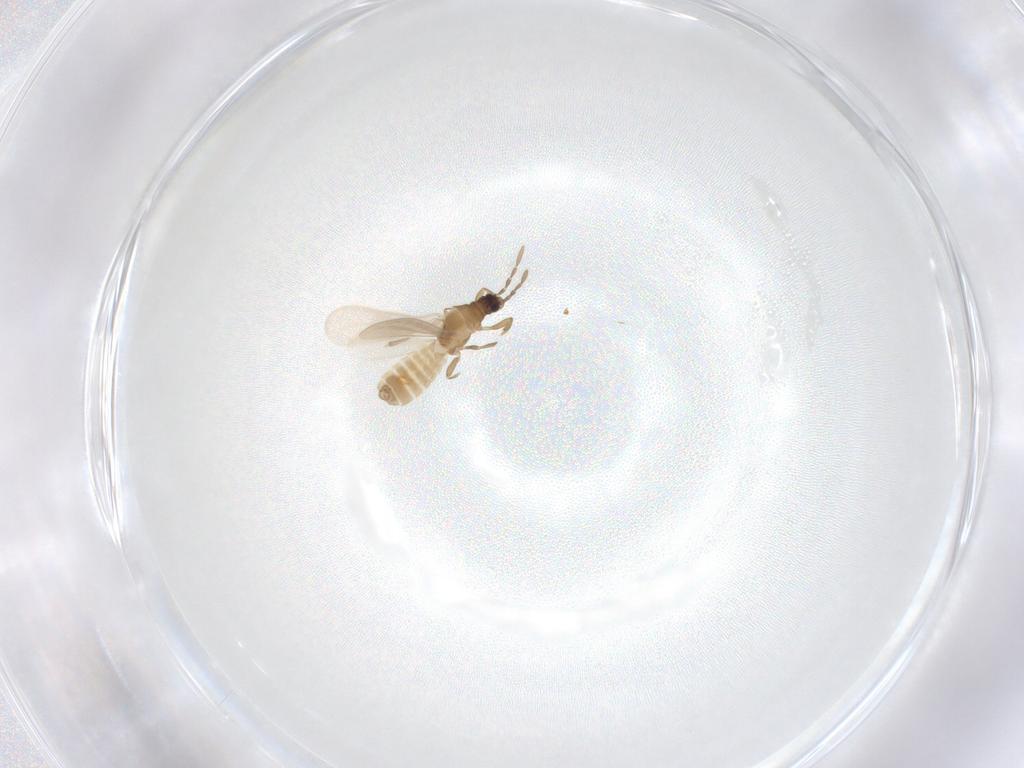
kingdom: Animalia
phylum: Arthropoda
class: Insecta
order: Hemiptera
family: Enicocephalidae
